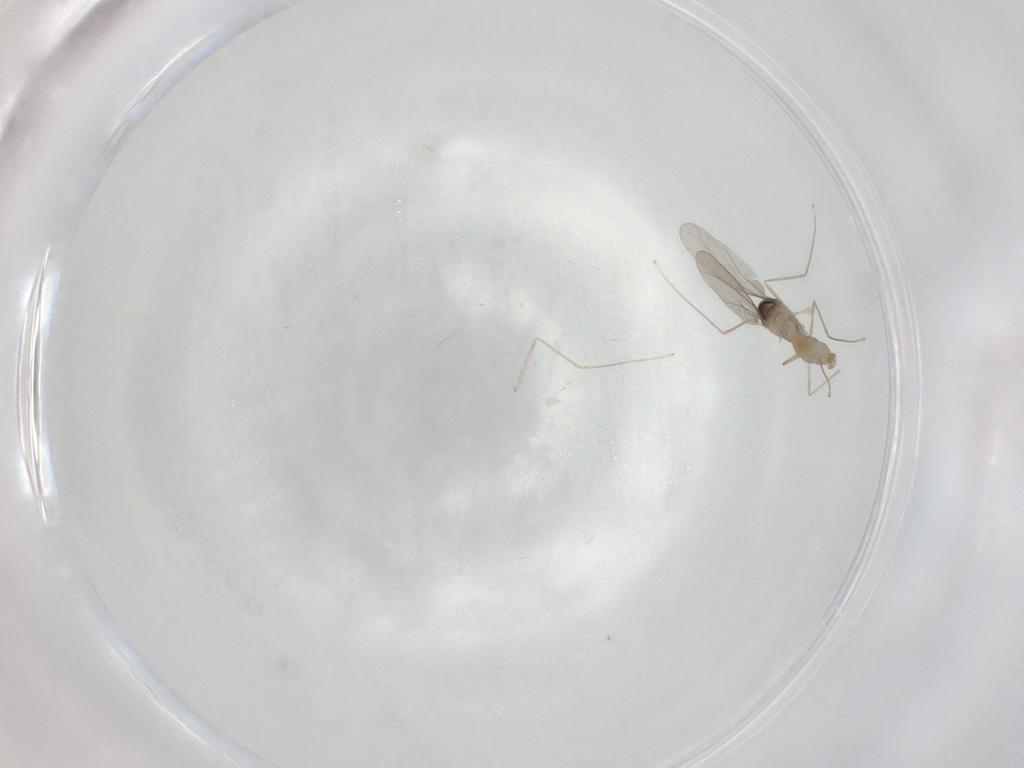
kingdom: Animalia
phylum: Arthropoda
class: Insecta
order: Diptera
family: Cecidomyiidae
